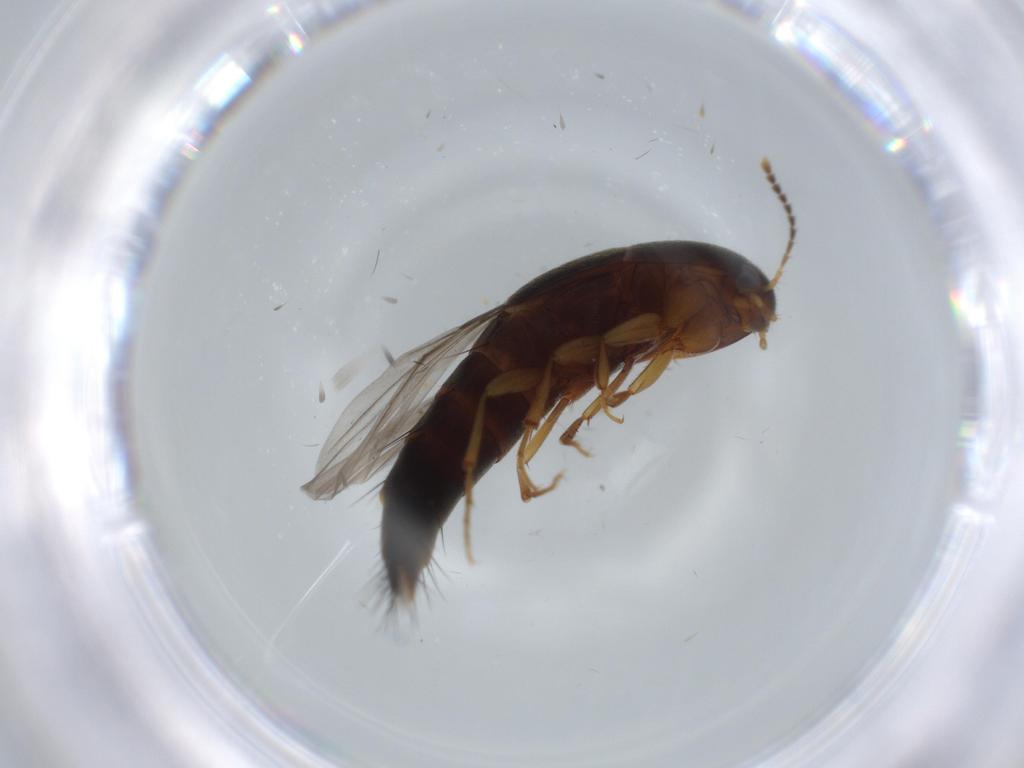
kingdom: Animalia
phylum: Arthropoda
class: Insecta
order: Coleoptera
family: Staphylinidae
